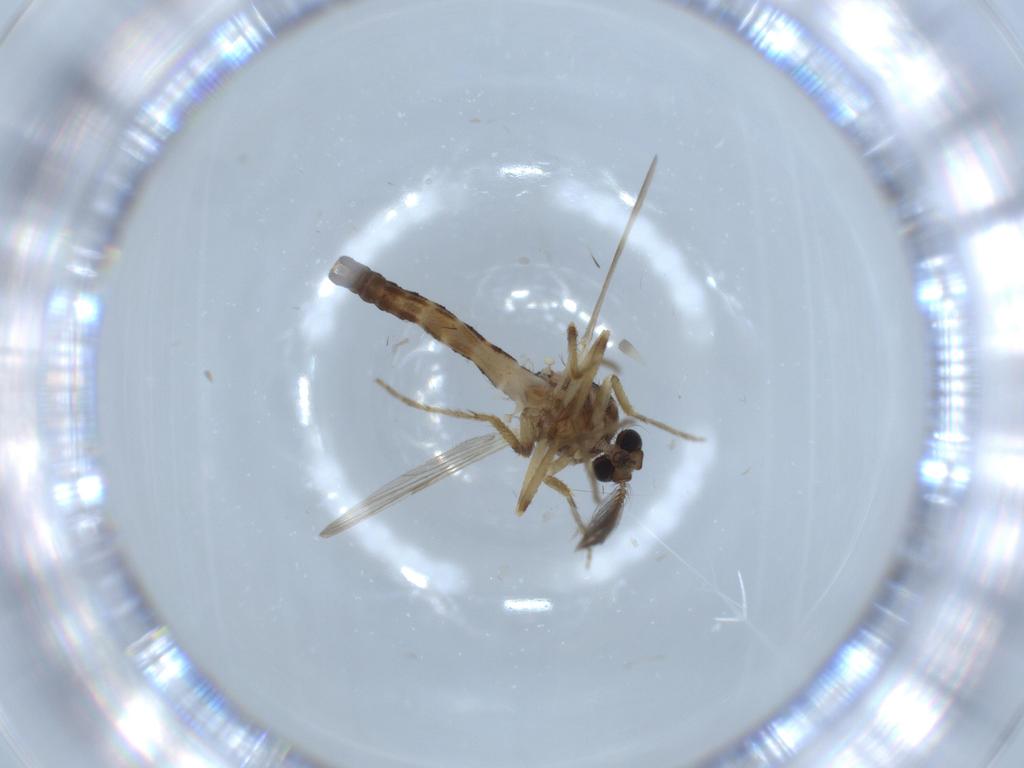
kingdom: Animalia
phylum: Arthropoda
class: Insecta
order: Diptera
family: Ceratopogonidae
